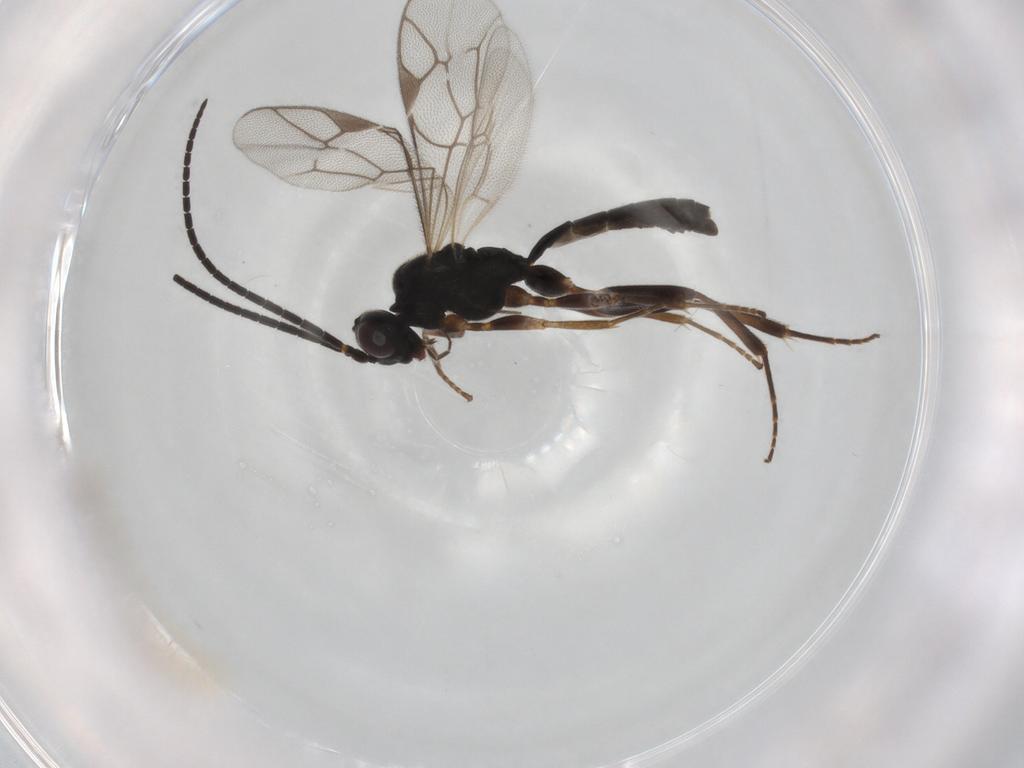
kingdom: Animalia
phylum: Arthropoda
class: Insecta
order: Hymenoptera
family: Ichneumonidae
